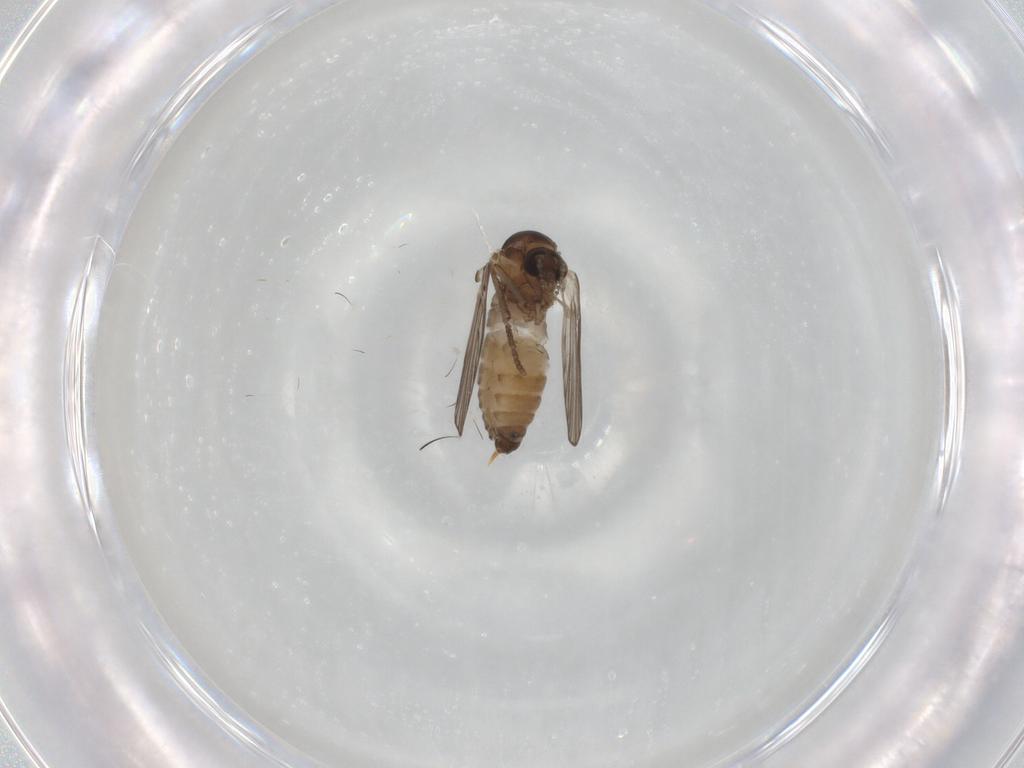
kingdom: Animalia
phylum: Arthropoda
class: Insecta
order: Diptera
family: Psychodidae
